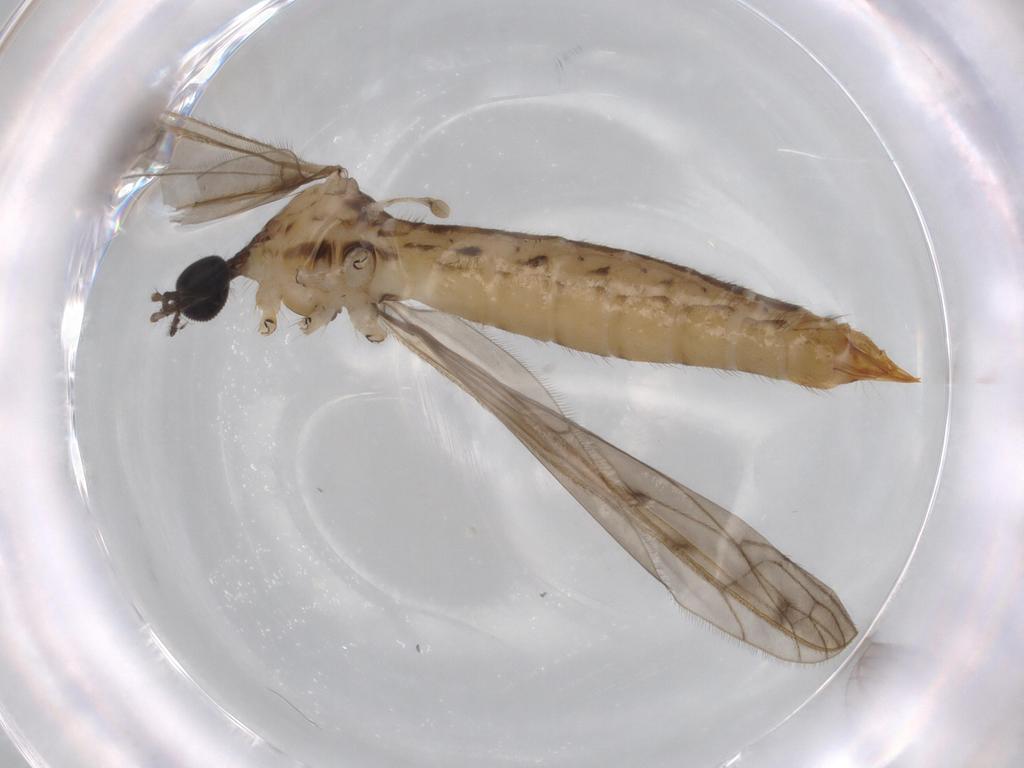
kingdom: Animalia
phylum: Arthropoda
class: Insecta
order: Diptera
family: Limoniidae
